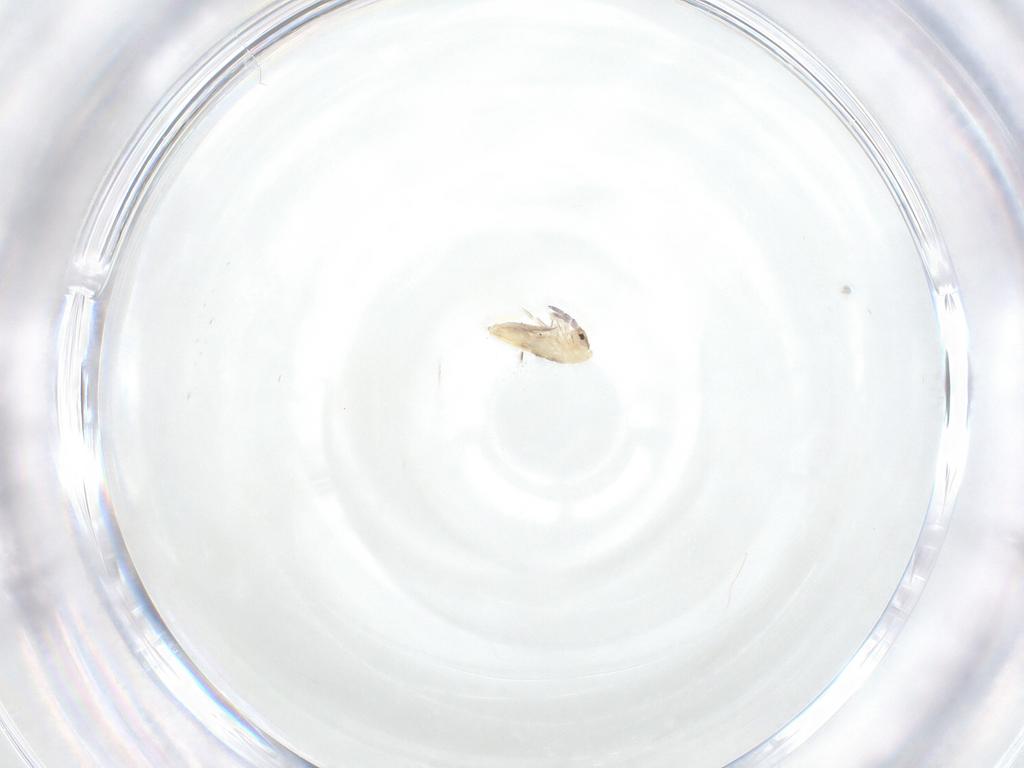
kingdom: Animalia
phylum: Arthropoda
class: Collembola
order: Entomobryomorpha
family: Entomobryidae
